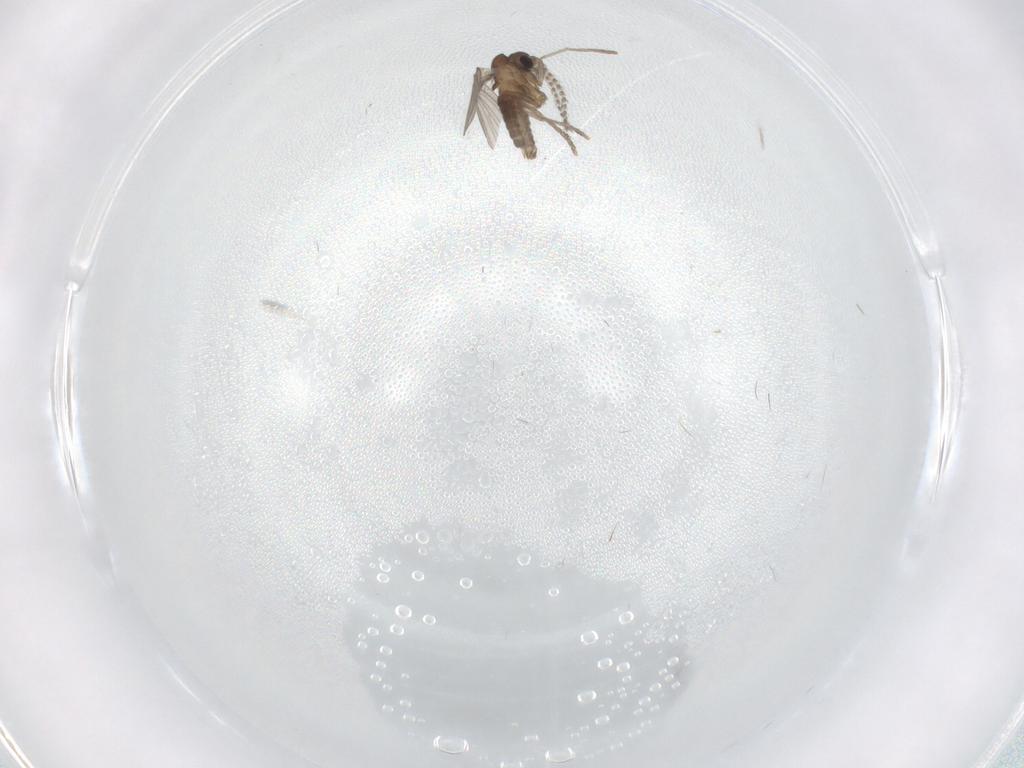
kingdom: Animalia
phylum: Arthropoda
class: Insecta
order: Diptera
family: Psychodidae
